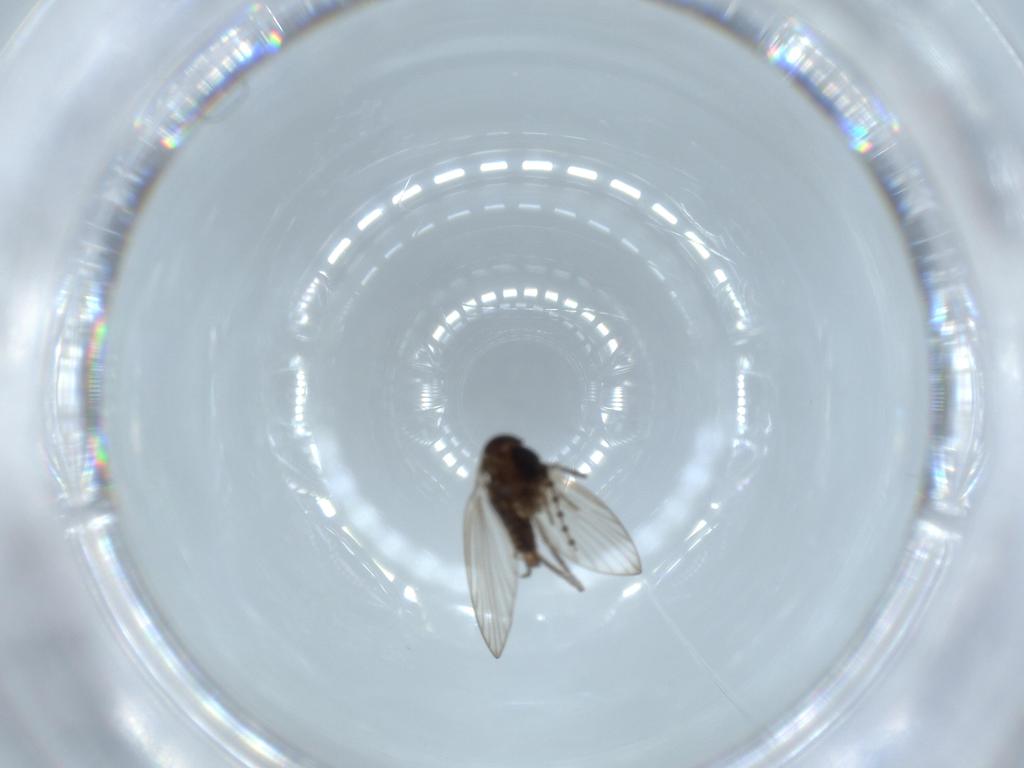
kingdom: Animalia
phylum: Arthropoda
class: Insecta
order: Diptera
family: Psychodidae
